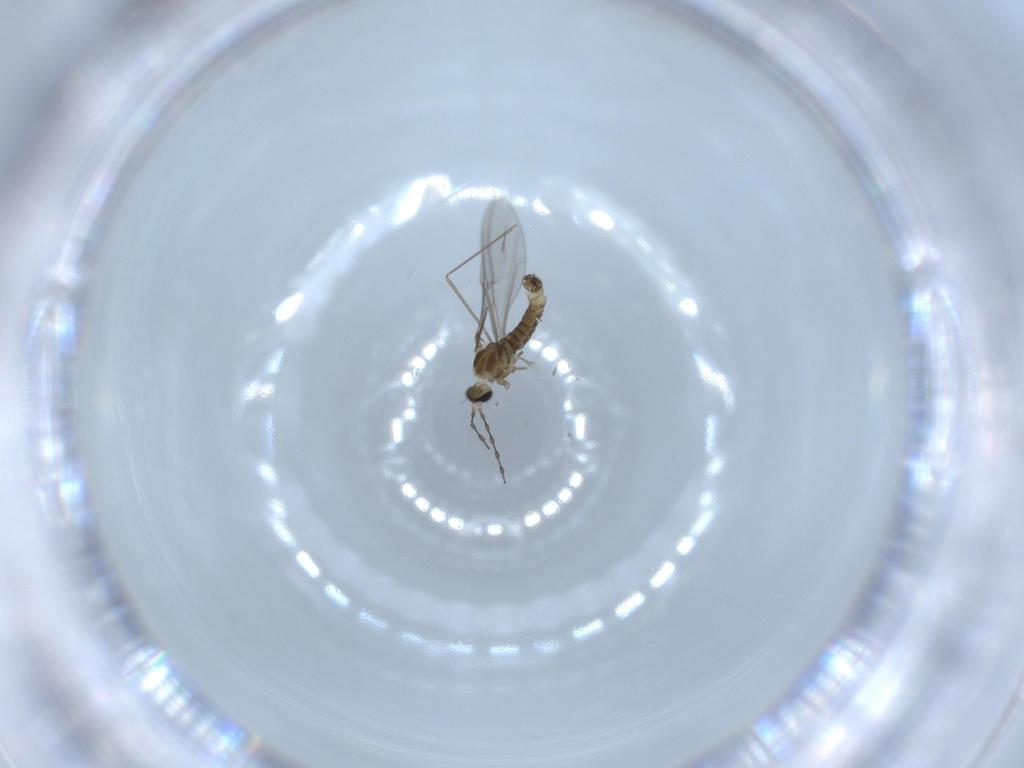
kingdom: Animalia
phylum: Arthropoda
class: Insecta
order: Diptera
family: Cecidomyiidae
